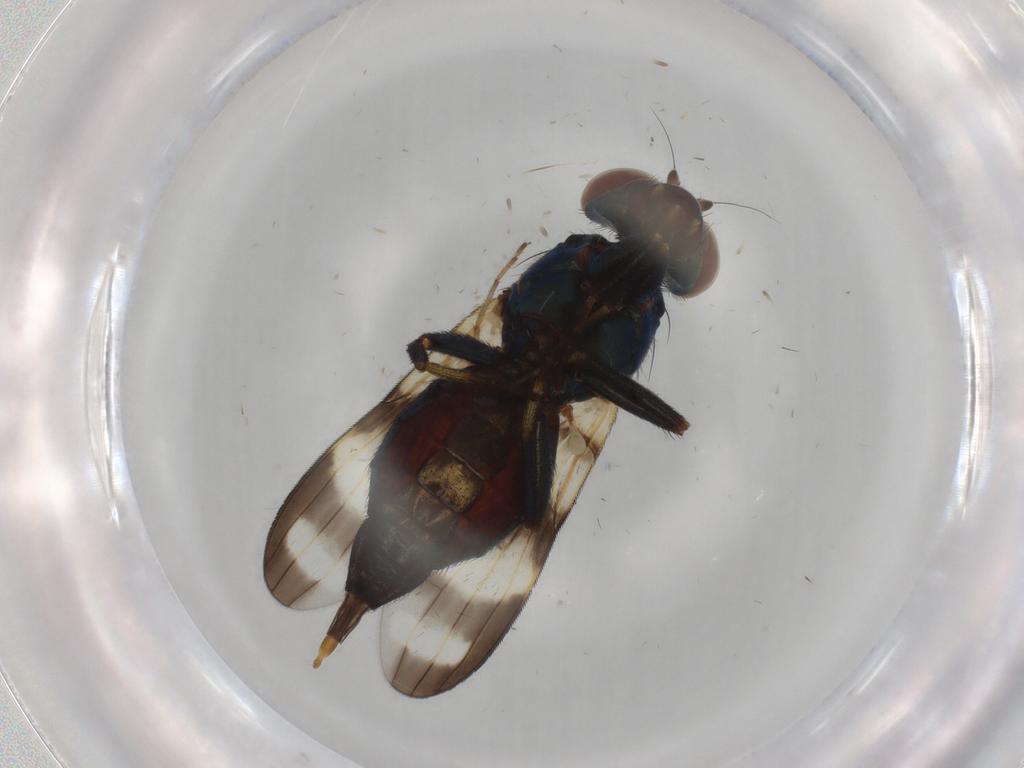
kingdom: Animalia
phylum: Arthropoda
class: Insecta
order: Diptera
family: Ulidiidae
